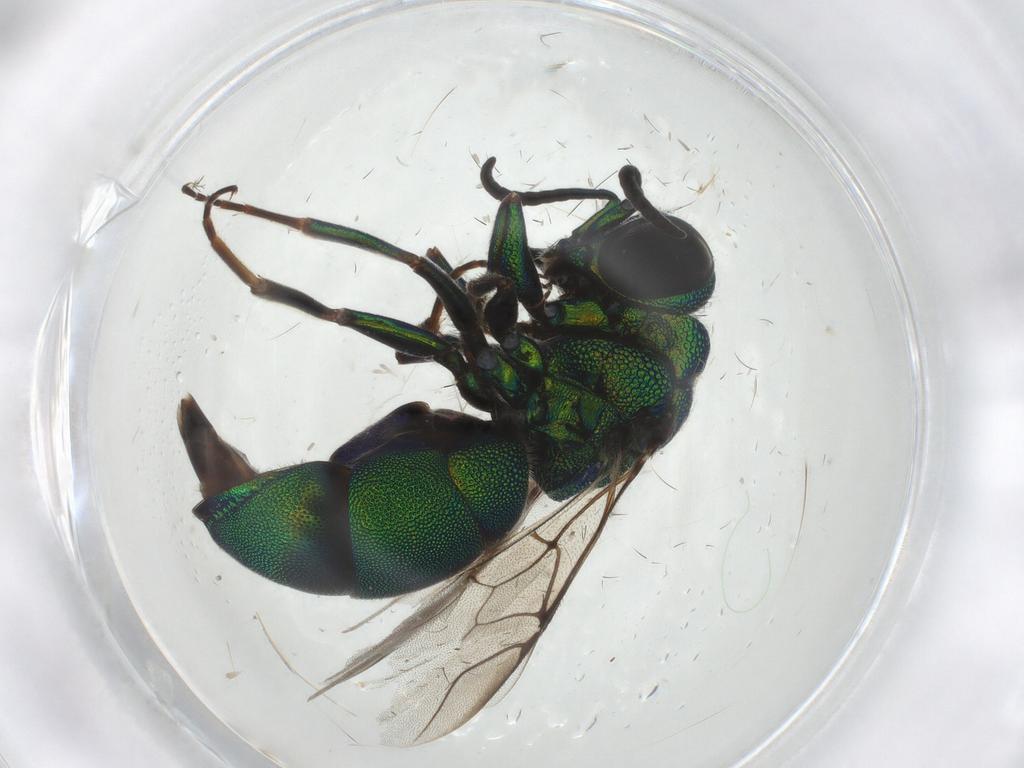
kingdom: Animalia
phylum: Arthropoda
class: Insecta
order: Hymenoptera
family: Chrysididae
